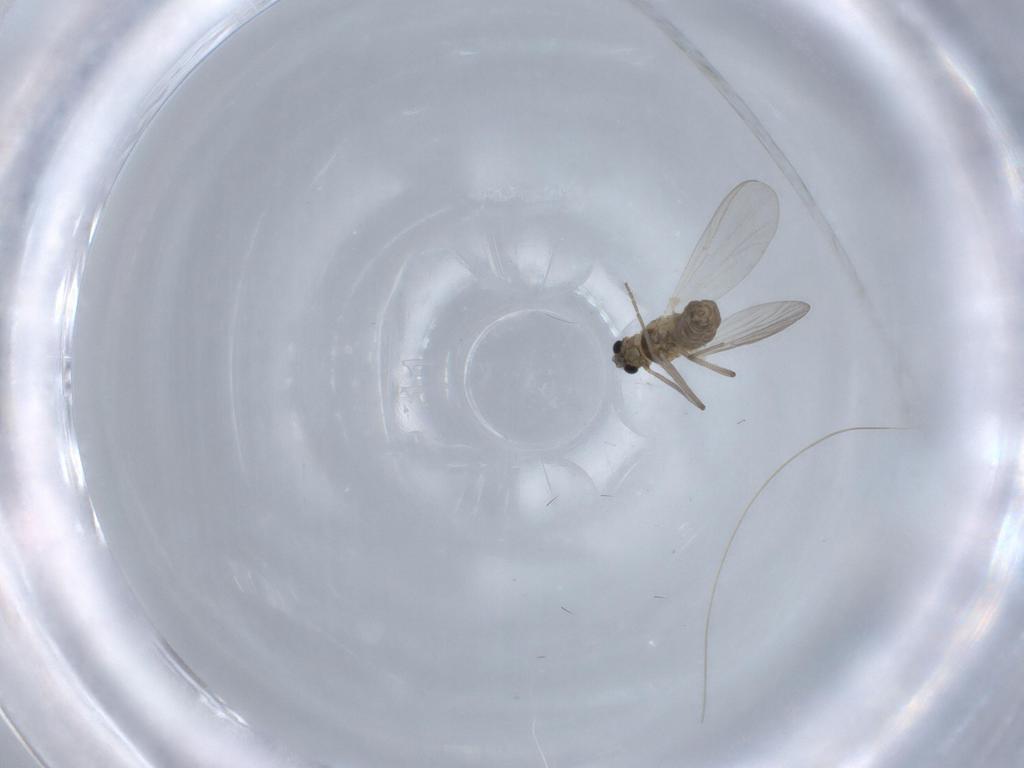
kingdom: Animalia
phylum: Arthropoda
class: Insecta
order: Diptera
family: Chironomidae
